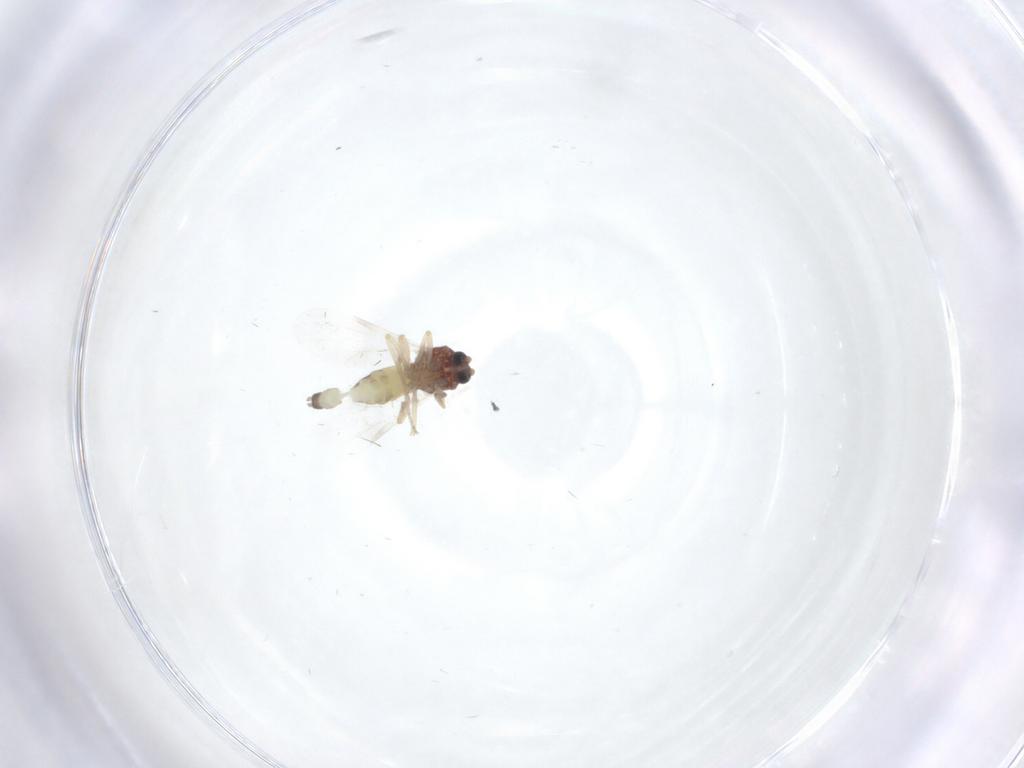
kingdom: Animalia
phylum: Arthropoda
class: Insecta
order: Diptera
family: Ceratopogonidae
